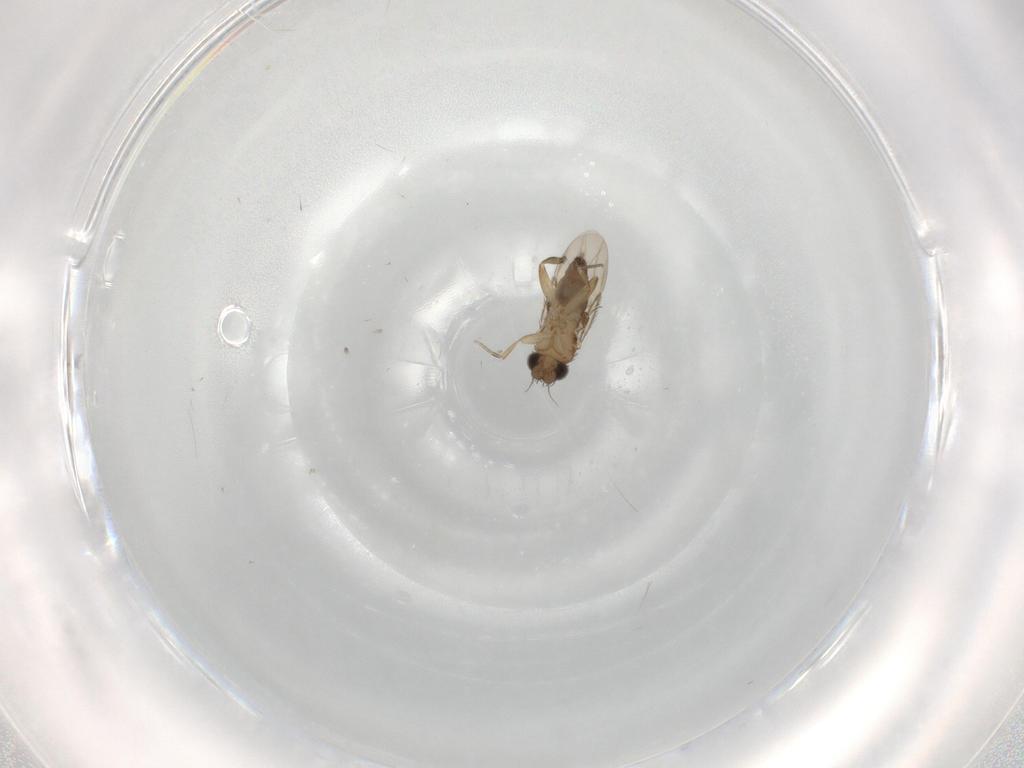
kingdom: Animalia
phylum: Arthropoda
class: Insecta
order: Diptera
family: Phoridae
